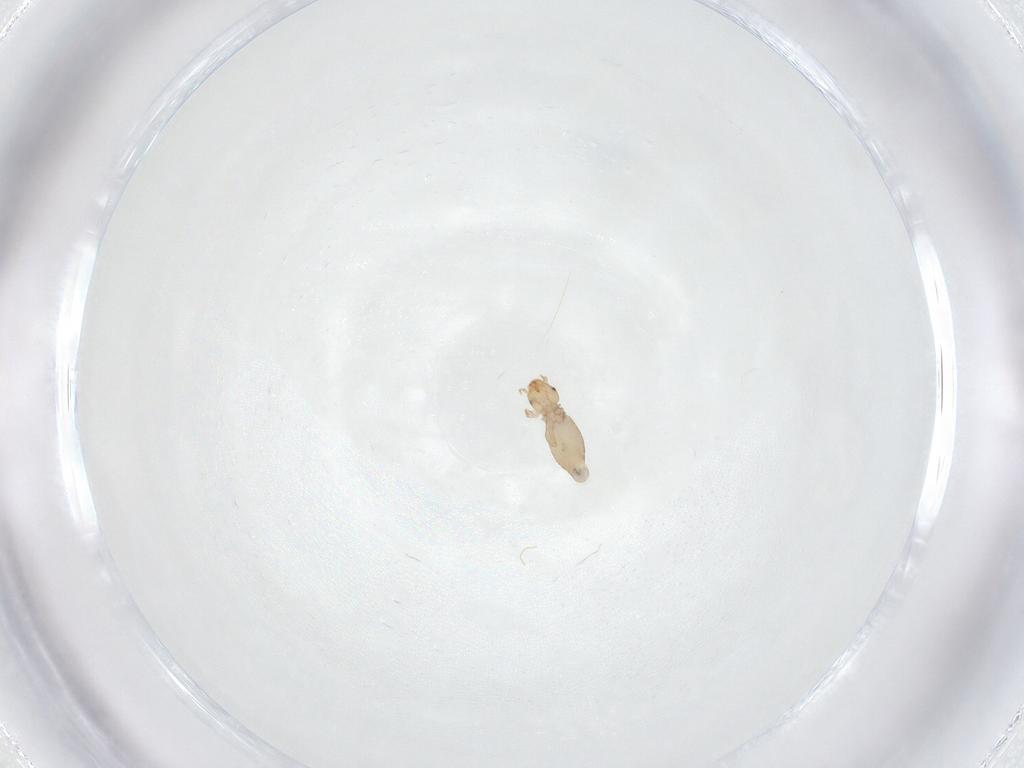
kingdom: Animalia
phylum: Arthropoda
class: Insecta
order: Psocodea
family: Liposcelididae
